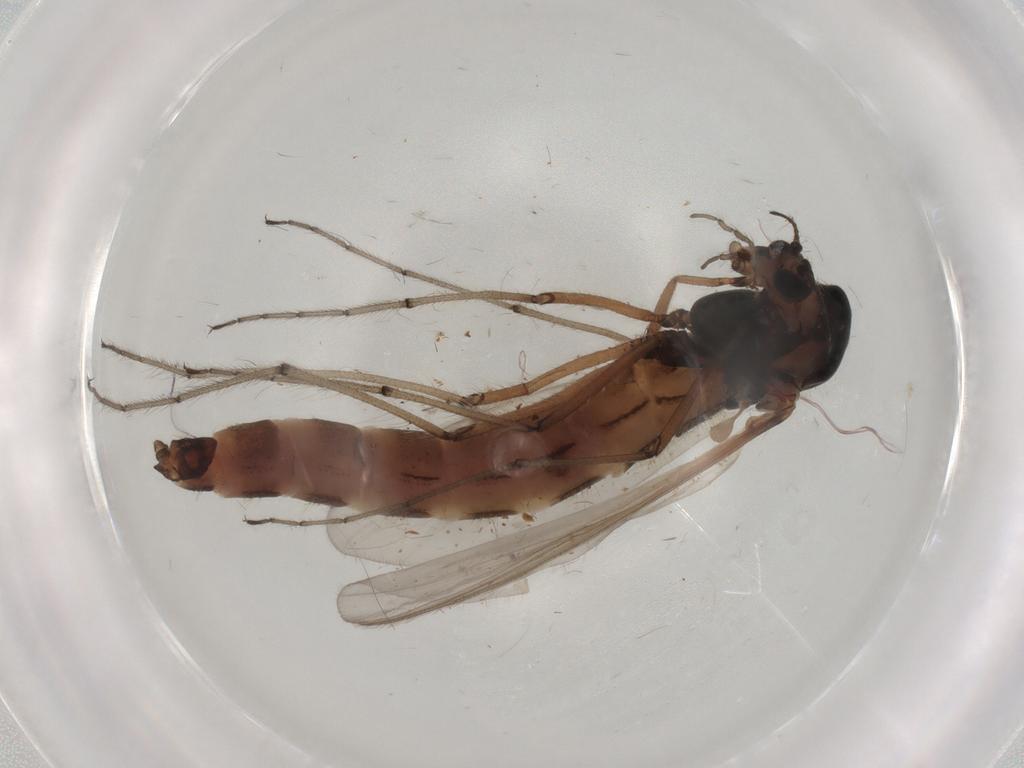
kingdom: Animalia
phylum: Arthropoda
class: Insecta
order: Diptera
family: Chironomidae
